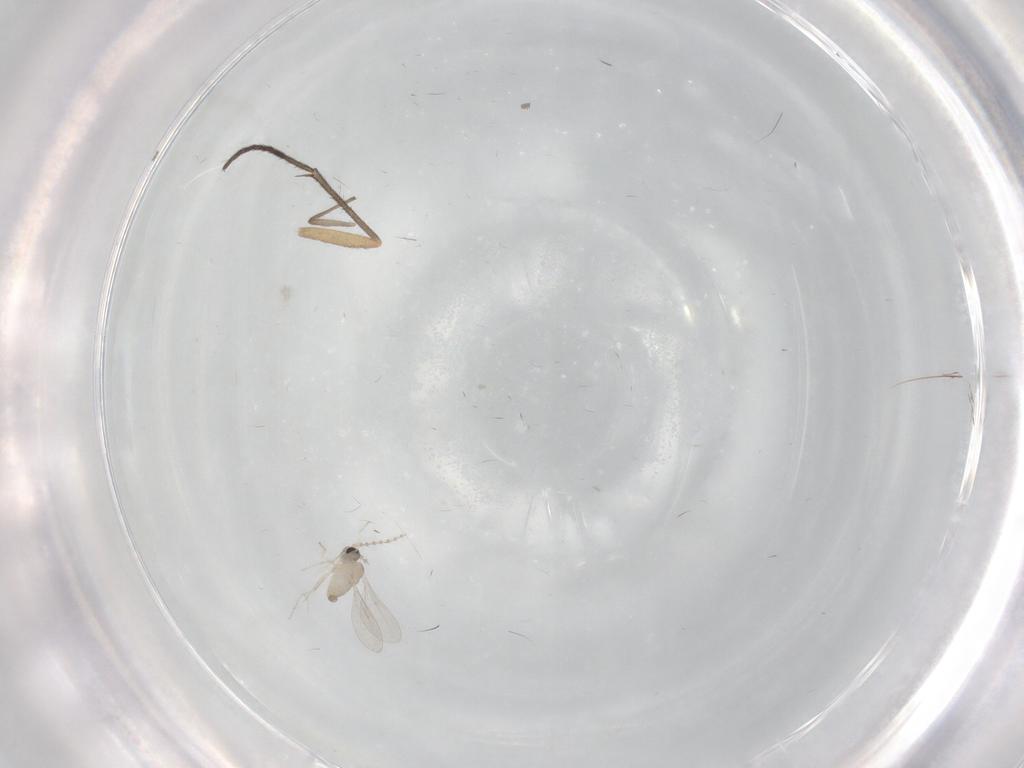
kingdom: Animalia
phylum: Arthropoda
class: Insecta
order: Diptera
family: Cecidomyiidae
